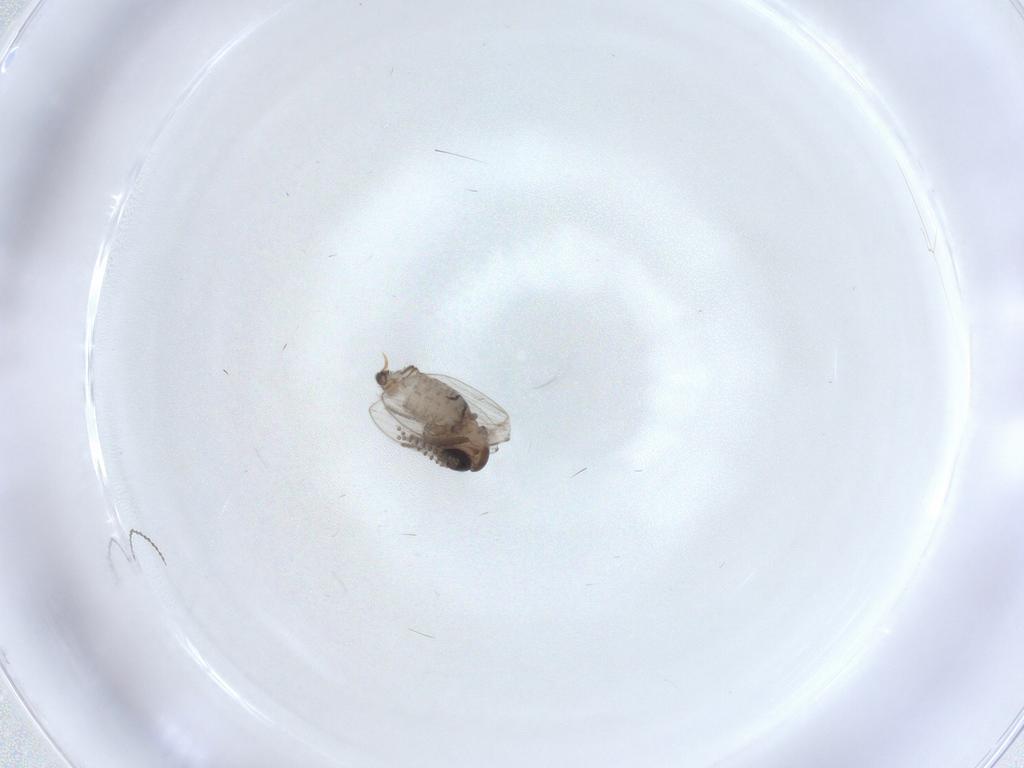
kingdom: Animalia
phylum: Arthropoda
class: Insecta
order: Diptera
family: Psychodidae
